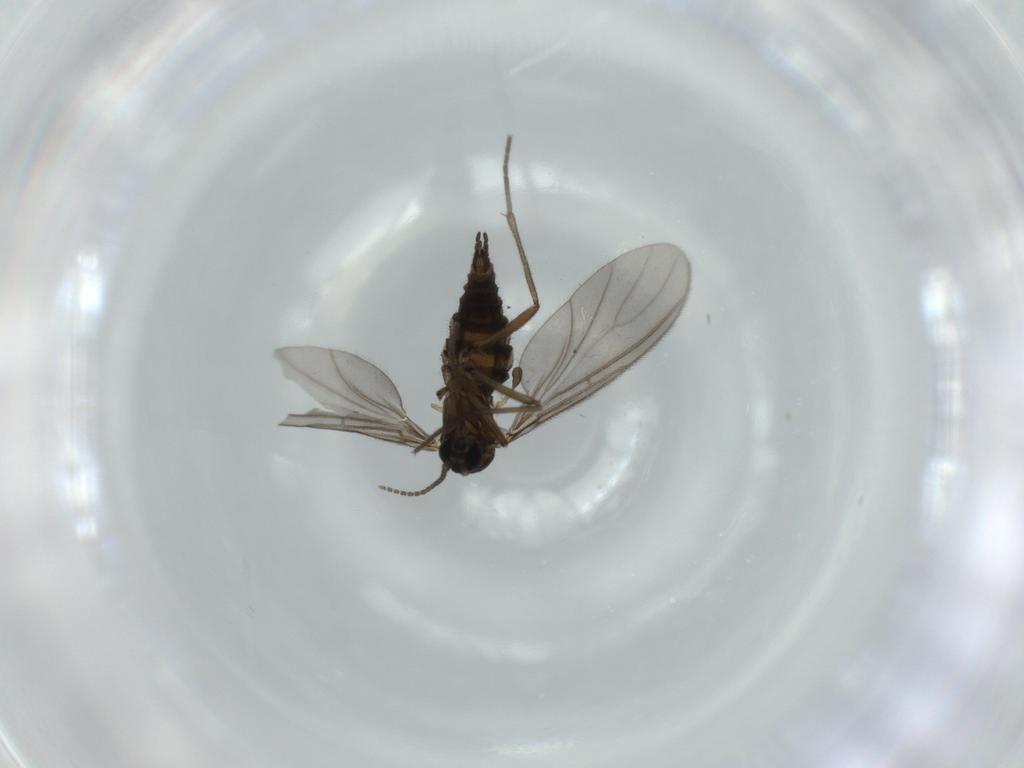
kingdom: Animalia
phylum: Arthropoda
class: Insecta
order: Diptera
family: Sciaridae
